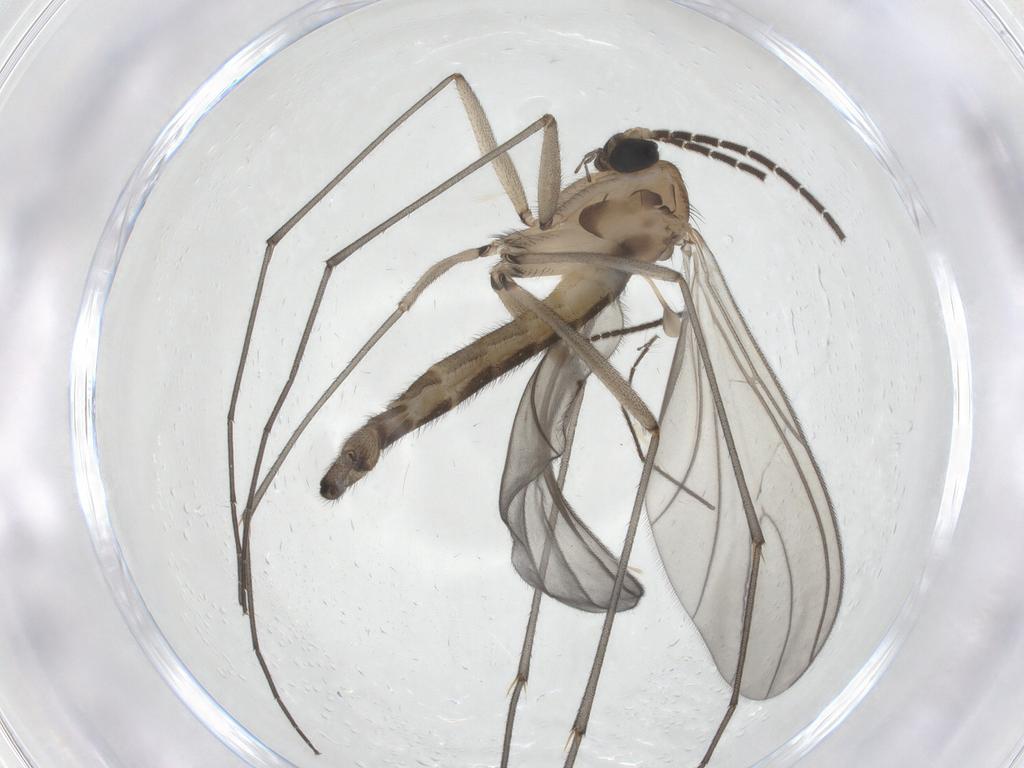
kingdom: Animalia
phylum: Arthropoda
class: Insecta
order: Diptera
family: Sciaridae
